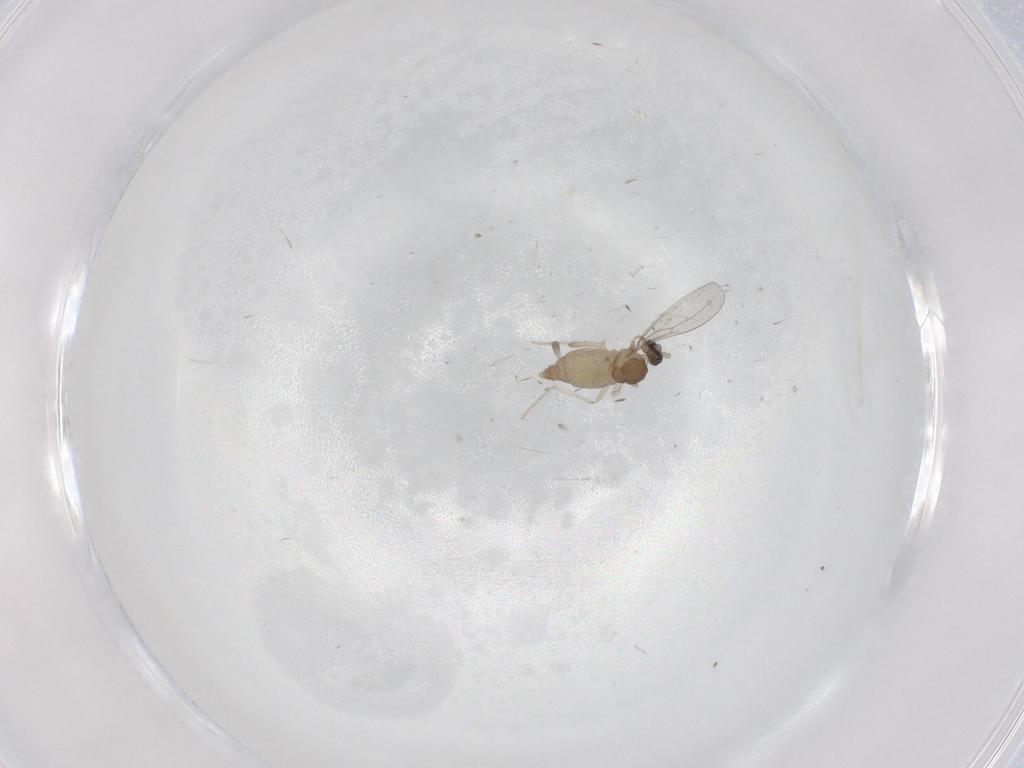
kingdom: Animalia
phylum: Arthropoda
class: Insecta
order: Diptera
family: Cecidomyiidae
